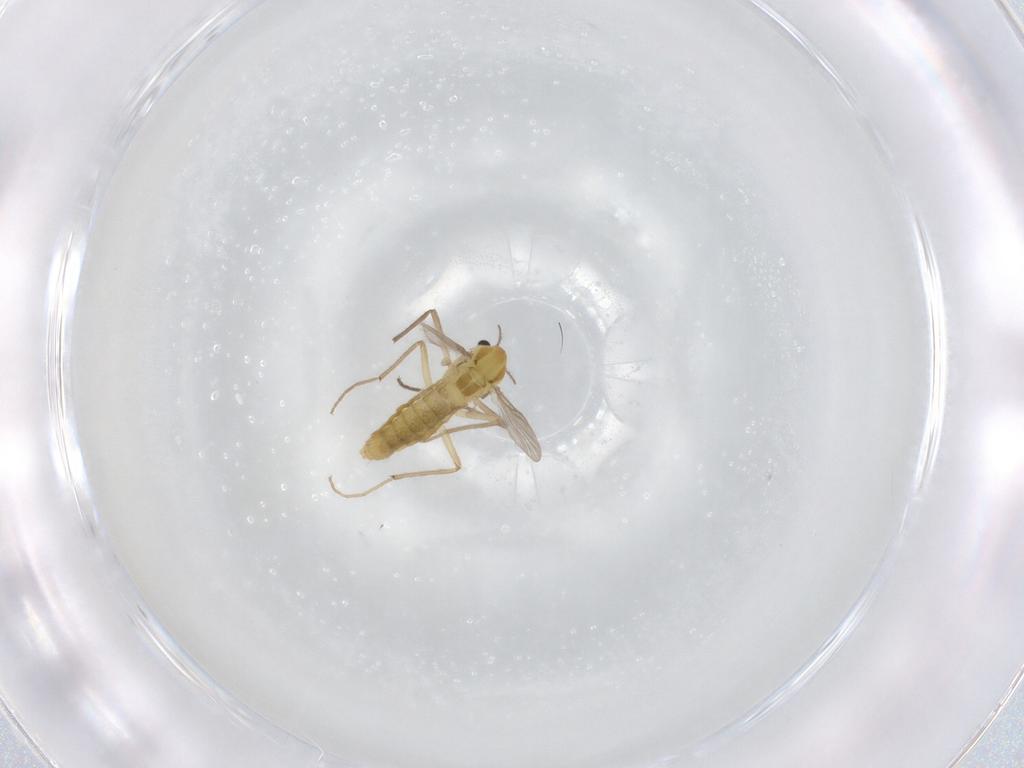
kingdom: Animalia
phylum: Arthropoda
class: Insecta
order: Diptera
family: Chironomidae
